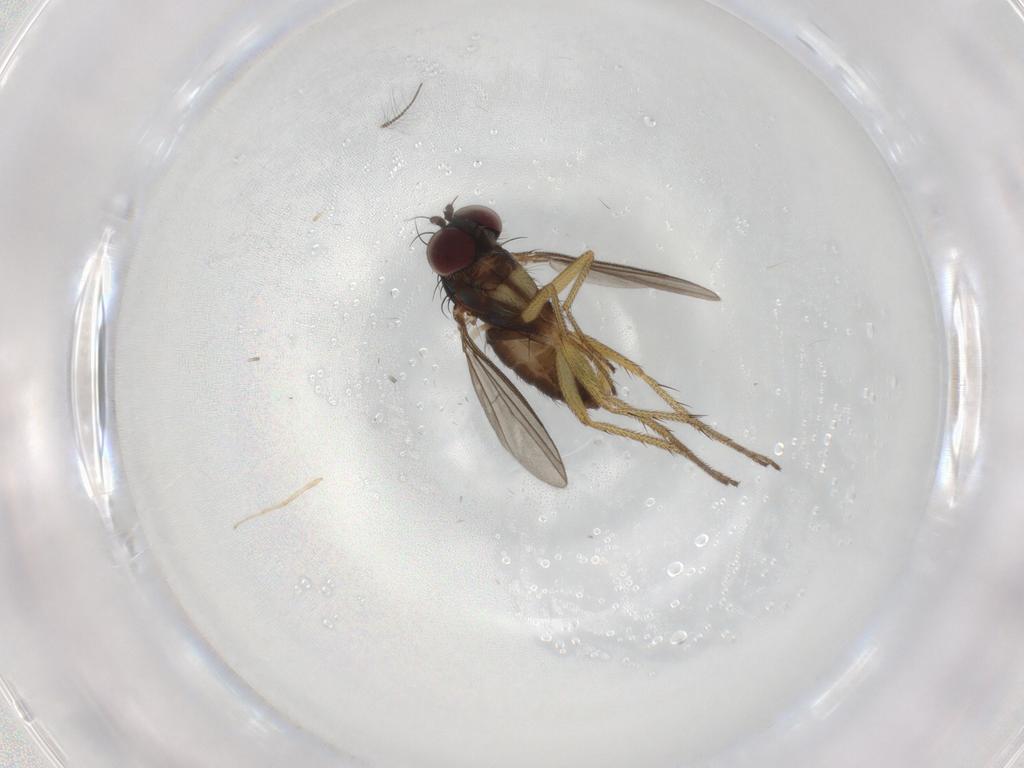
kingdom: Animalia
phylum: Arthropoda
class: Insecta
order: Diptera
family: Dolichopodidae
